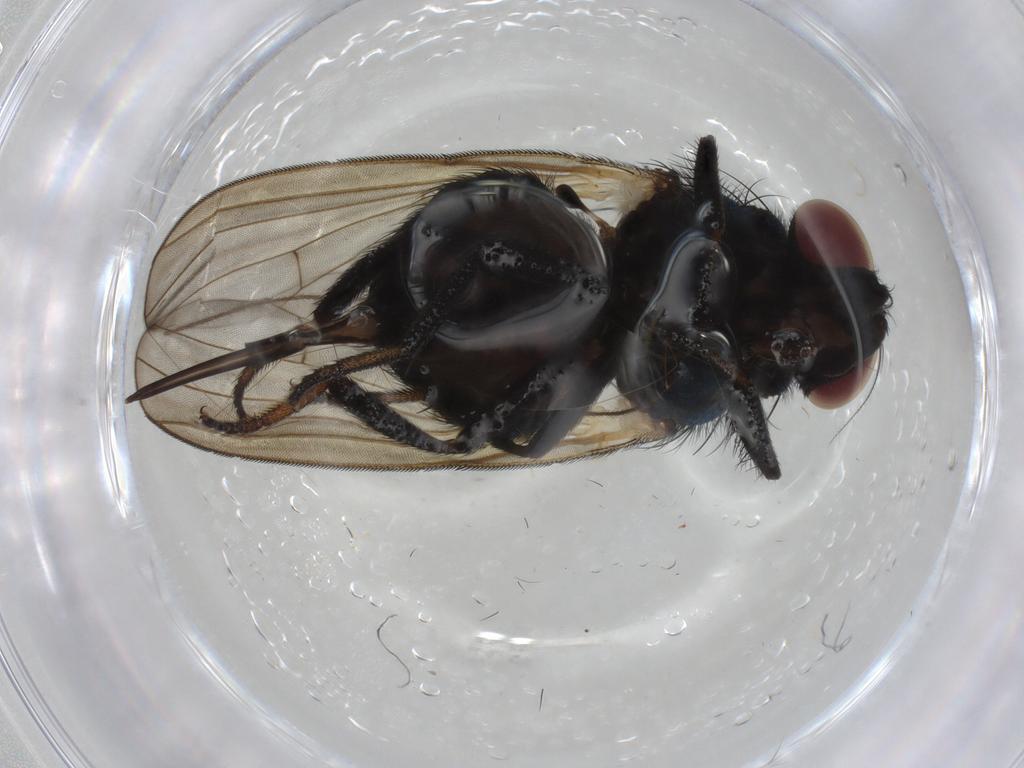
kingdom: Animalia
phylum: Arthropoda
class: Insecta
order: Diptera
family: Lonchaeidae
